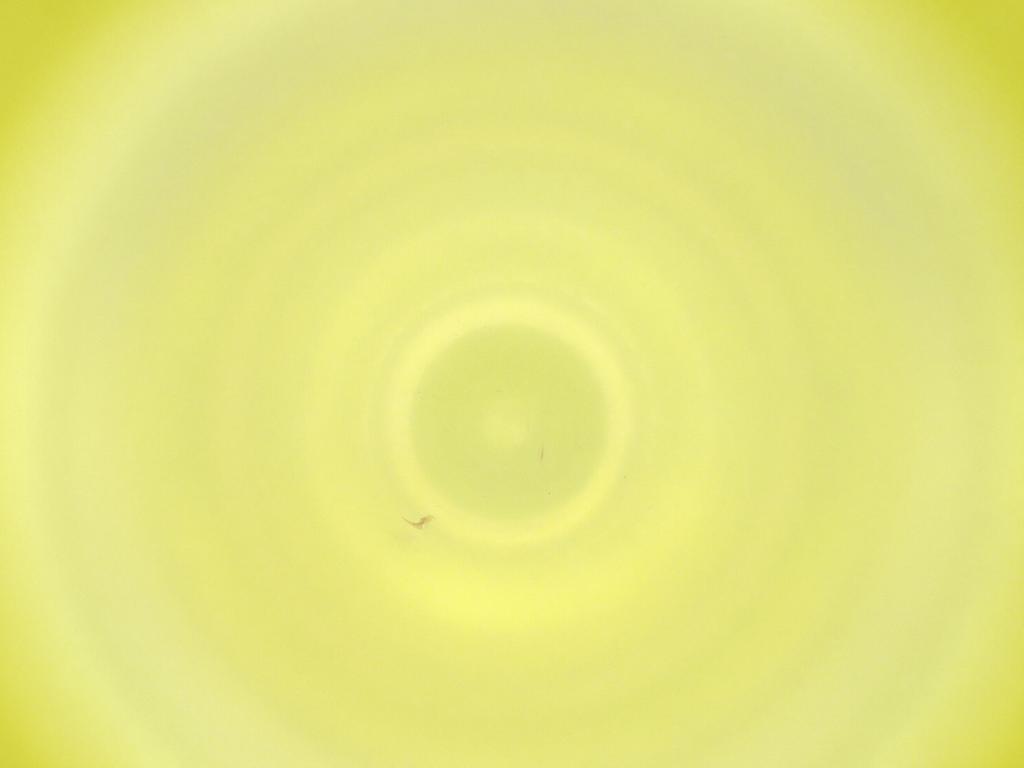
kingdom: Animalia
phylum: Arthropoda
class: Insecta
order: Diptera
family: Cecidomyiidae
